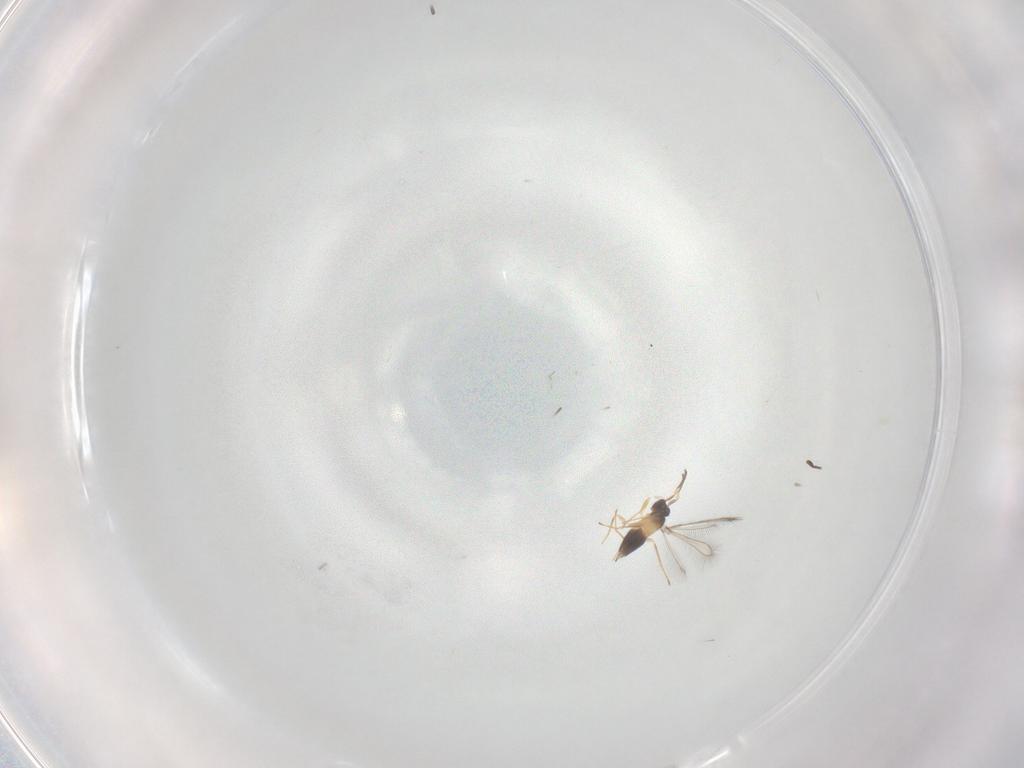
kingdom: Animalia
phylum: Arthropoda
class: Insecta
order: Hymenoptera
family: Mymaridae
